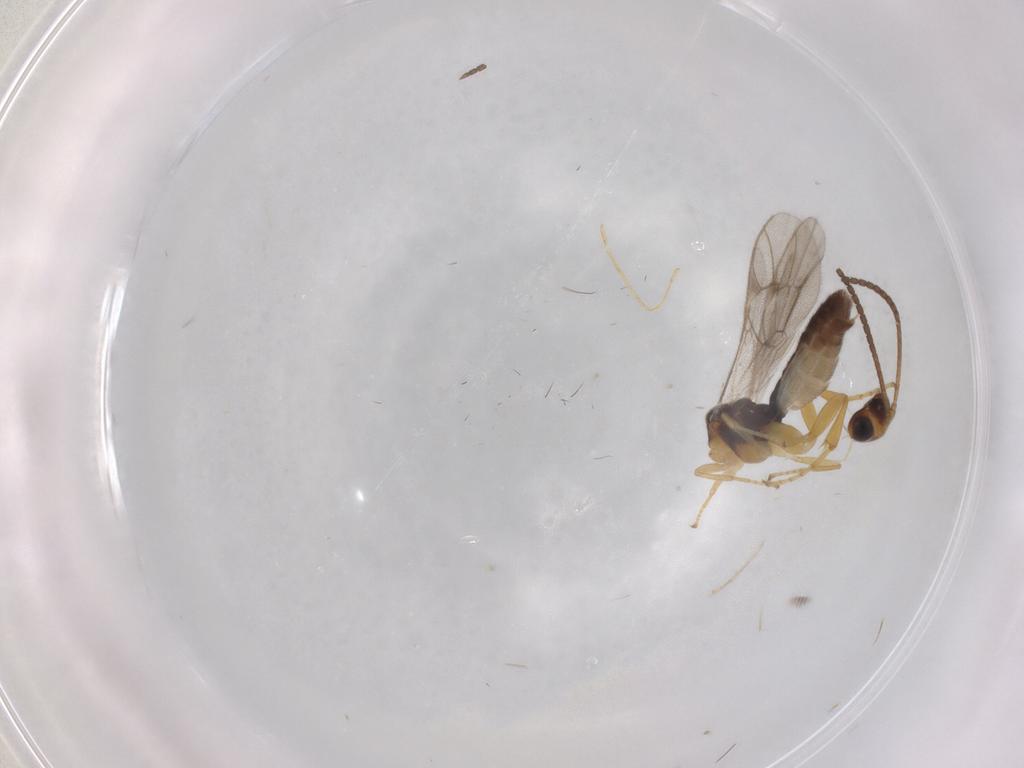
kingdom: Animalia
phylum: Arthropoda
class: Insecta
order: Hymenoptera
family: Ichneumonidae
